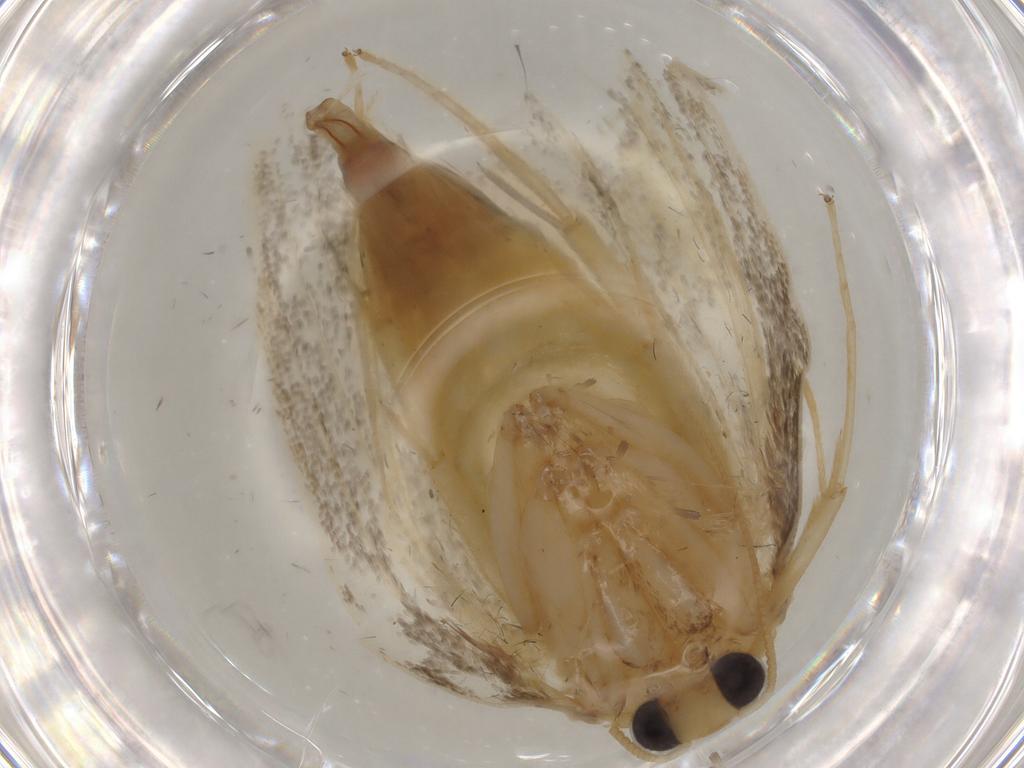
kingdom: Animalia
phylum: Arthropoda
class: Insecta
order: Lepidoptera
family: Psychidae
